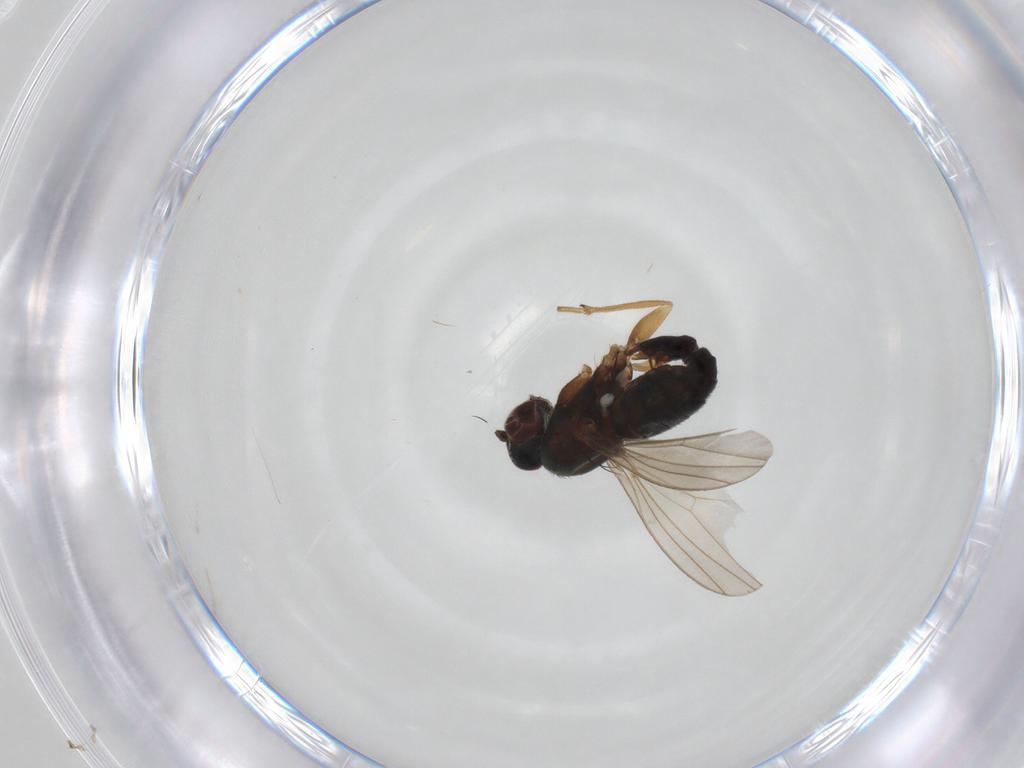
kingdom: Animalia
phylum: Arthropoda
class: Insecta
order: Diptera
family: Dolichopodidae
